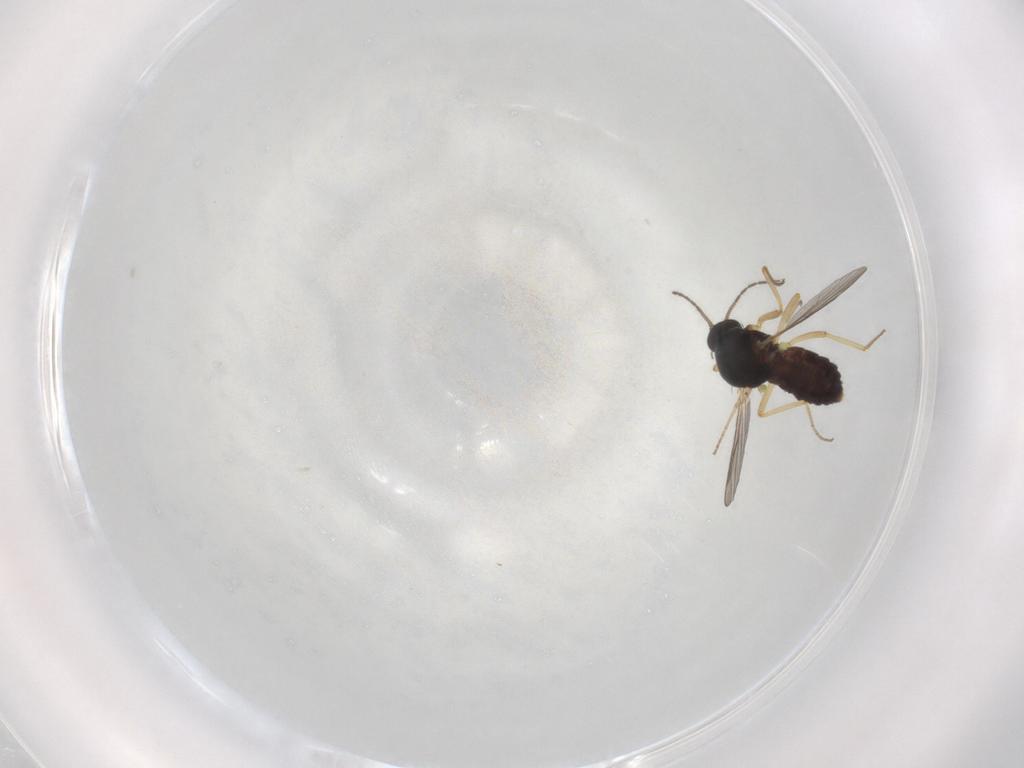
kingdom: Animalia
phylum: Arthropoda
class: Insecta
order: Diptera
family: Ceratopogonidae
